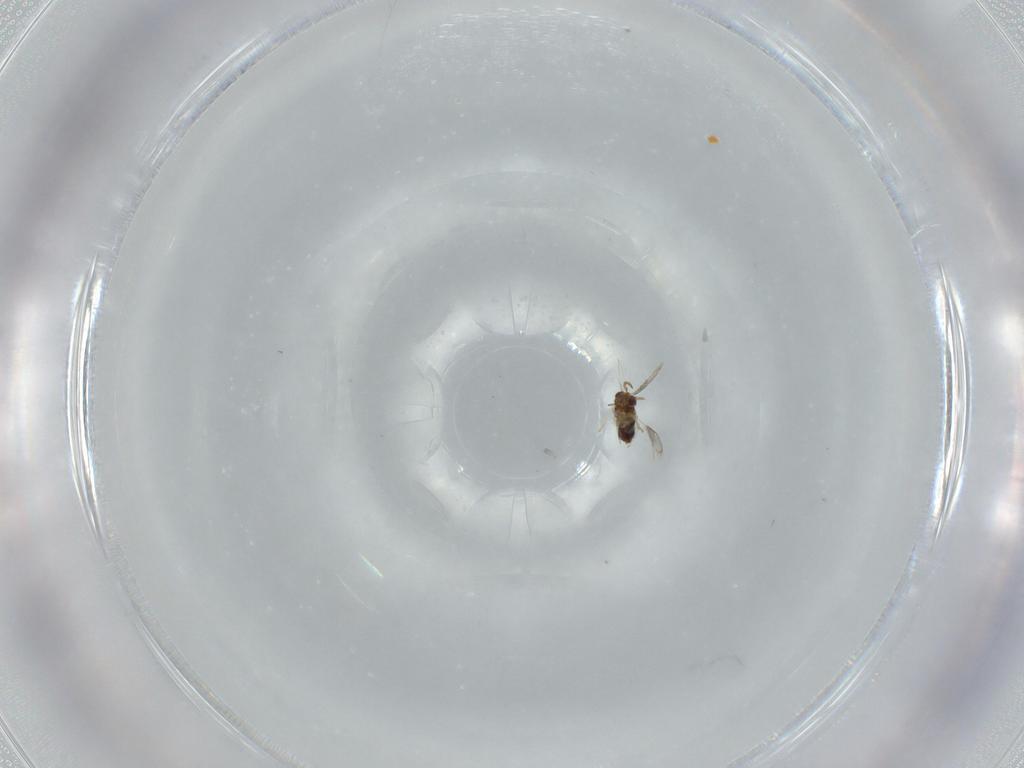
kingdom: Animalia
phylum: Arthropoda
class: Insecta
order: Hymenoptera
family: Aphelinidae
